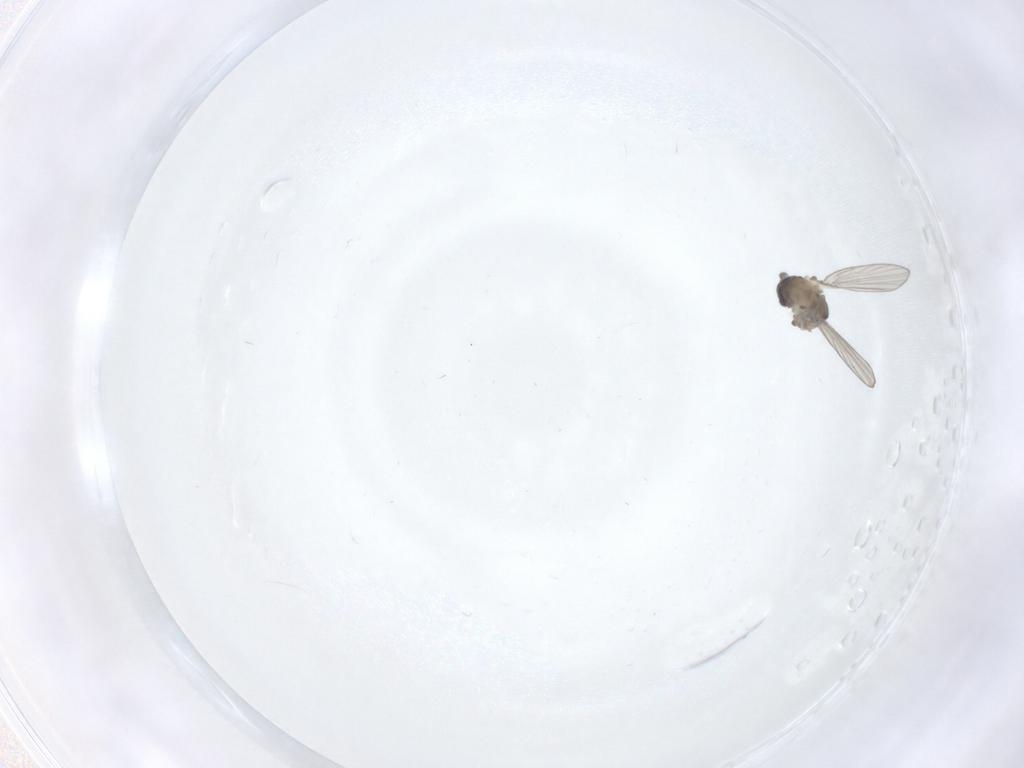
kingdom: Animalia
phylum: Arthropoda
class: Insecta
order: Diptera
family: Psychodidae
